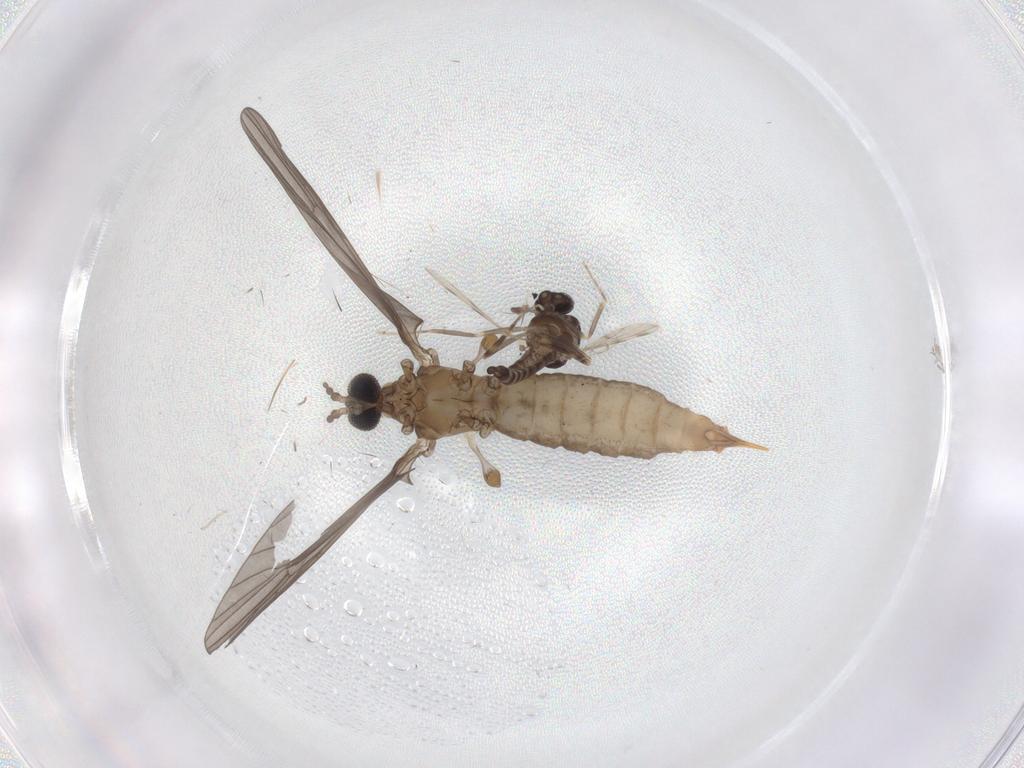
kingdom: Animalia
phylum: Arthropoda
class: Insecta
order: Diptera
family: Ceratopogonidae
